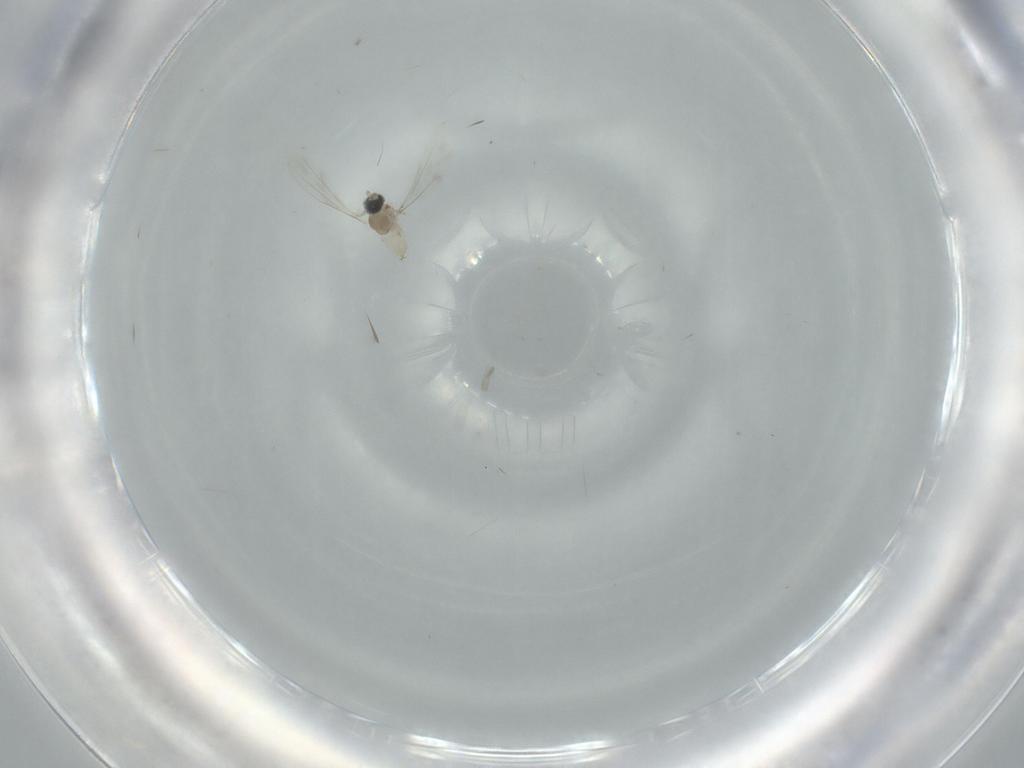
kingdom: Animalia
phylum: Arthropoda
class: Insecta
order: Diptera
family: Cecidomyiidae
